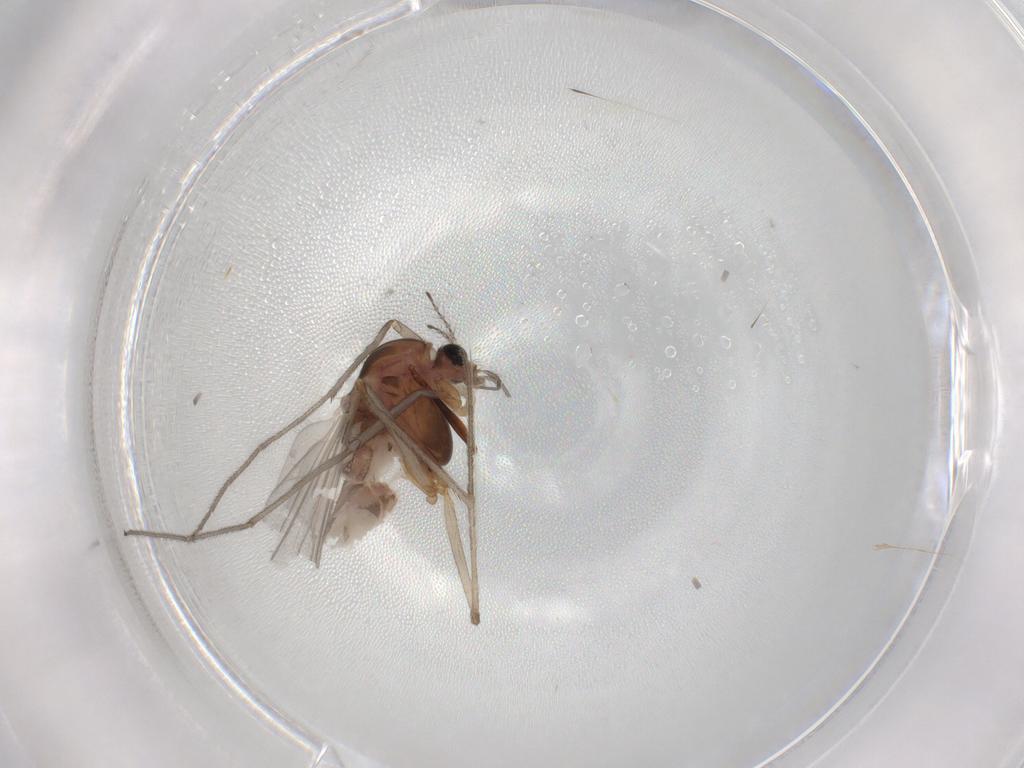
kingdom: Animalia
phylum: Arthropoda
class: Insecta
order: Diptera
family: Chironomidae
